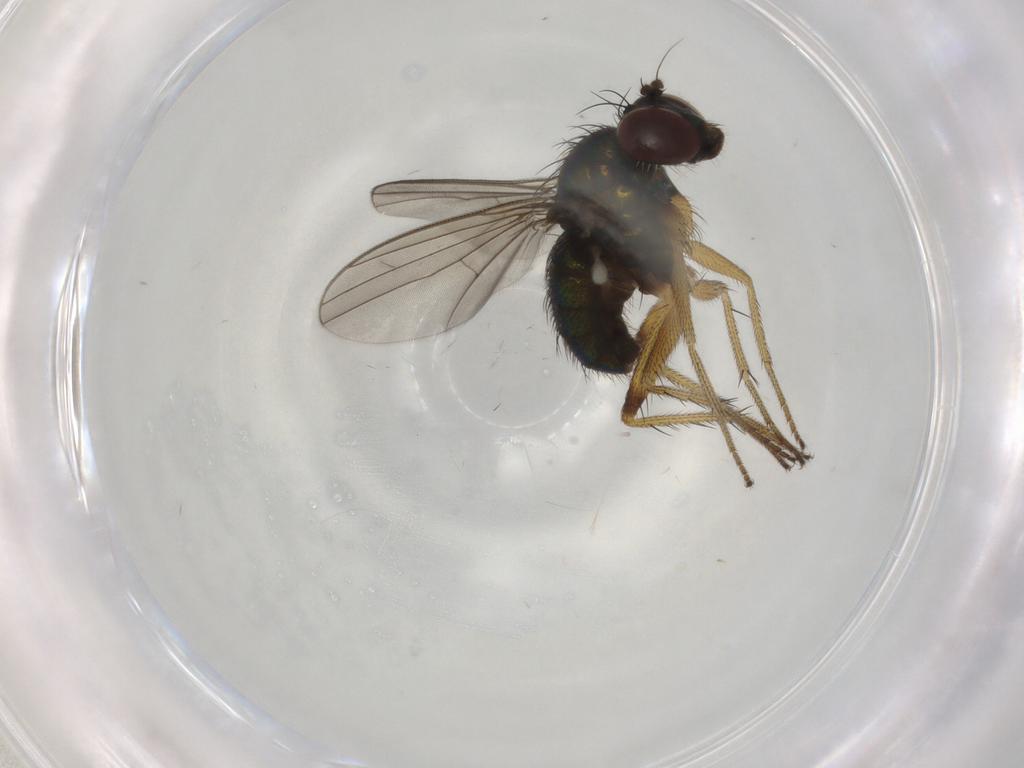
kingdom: Animalia
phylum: Arthropoda
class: Insecta
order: Diptera
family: Dolichopodidae
